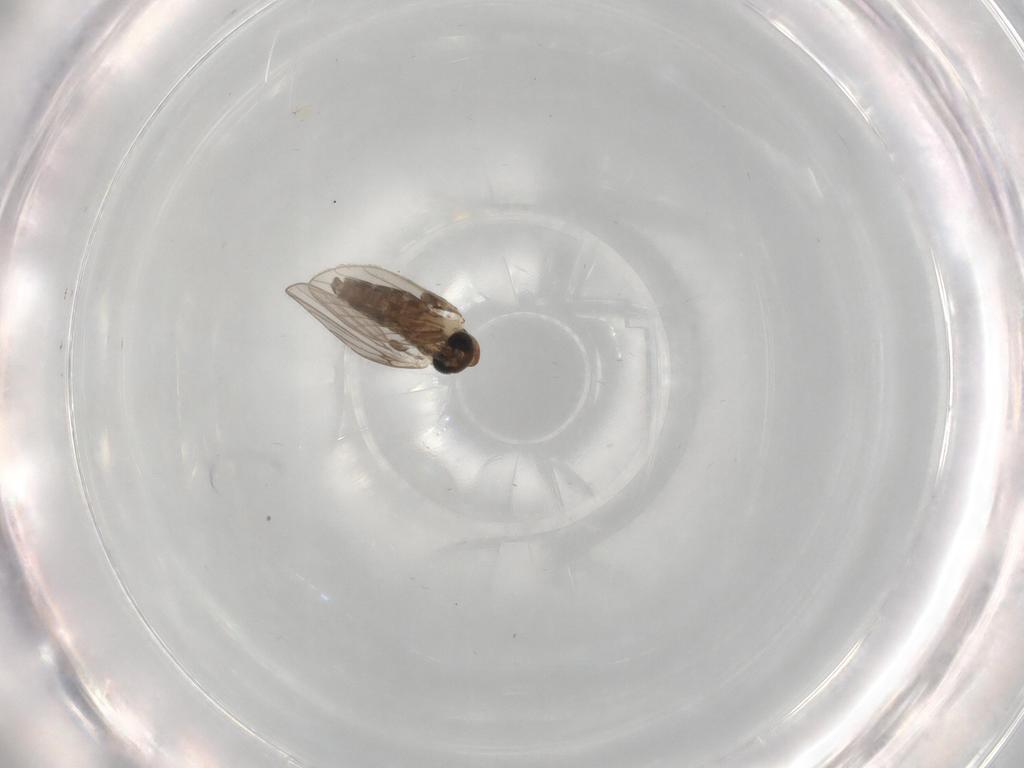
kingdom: Animalia
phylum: Arthropoda
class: Insecta
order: Diptera
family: Psychodidae
